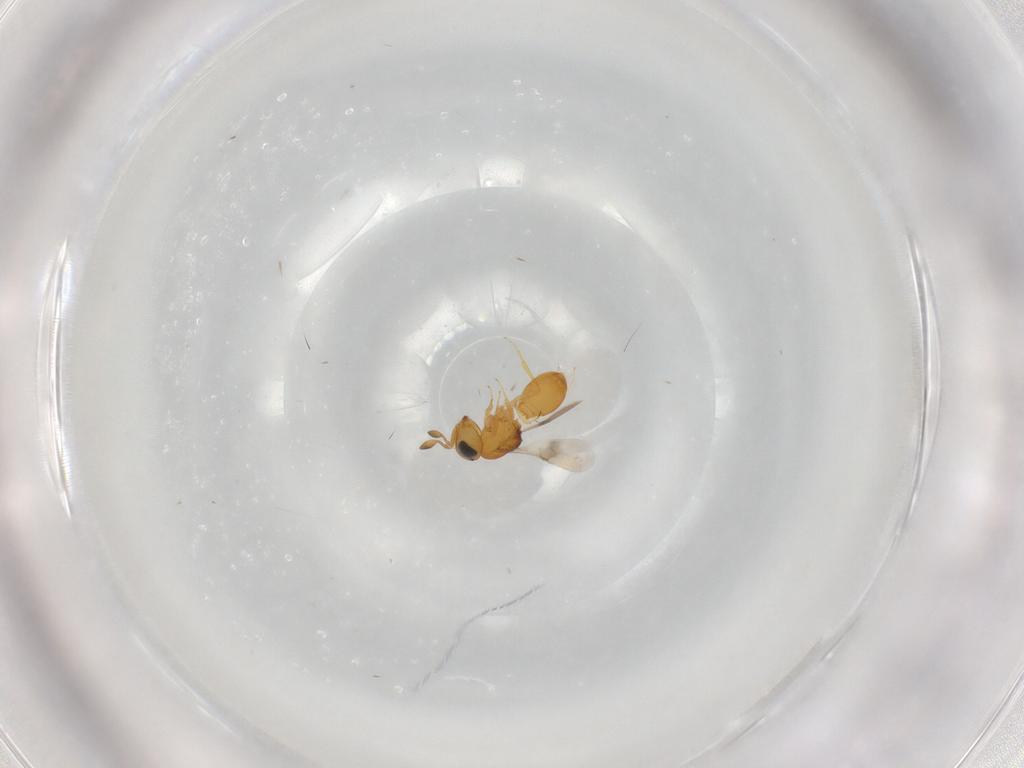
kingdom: Animalia
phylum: Arthropoda
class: Insecta
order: Hymenoptera
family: Scelionidae
